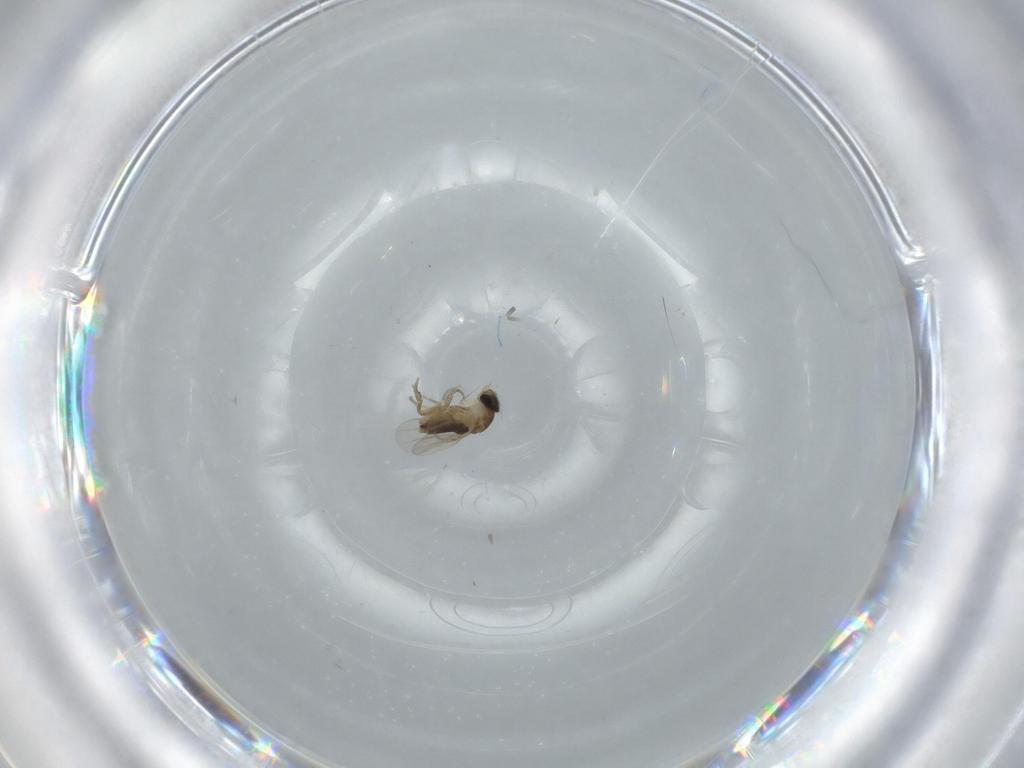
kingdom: Animalia
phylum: Arthropoda
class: Insecta
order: Diptera
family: Phoridae
